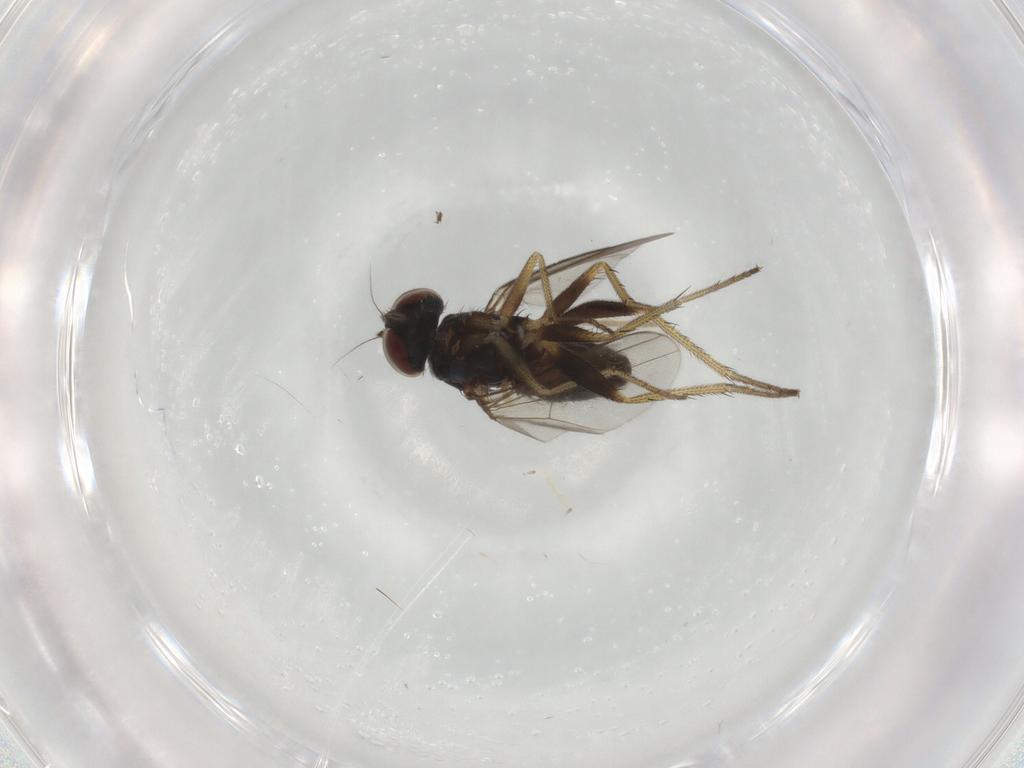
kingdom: Animalia
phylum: Arthropoda
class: Insecta
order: Diptera
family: Dolichopodidae
